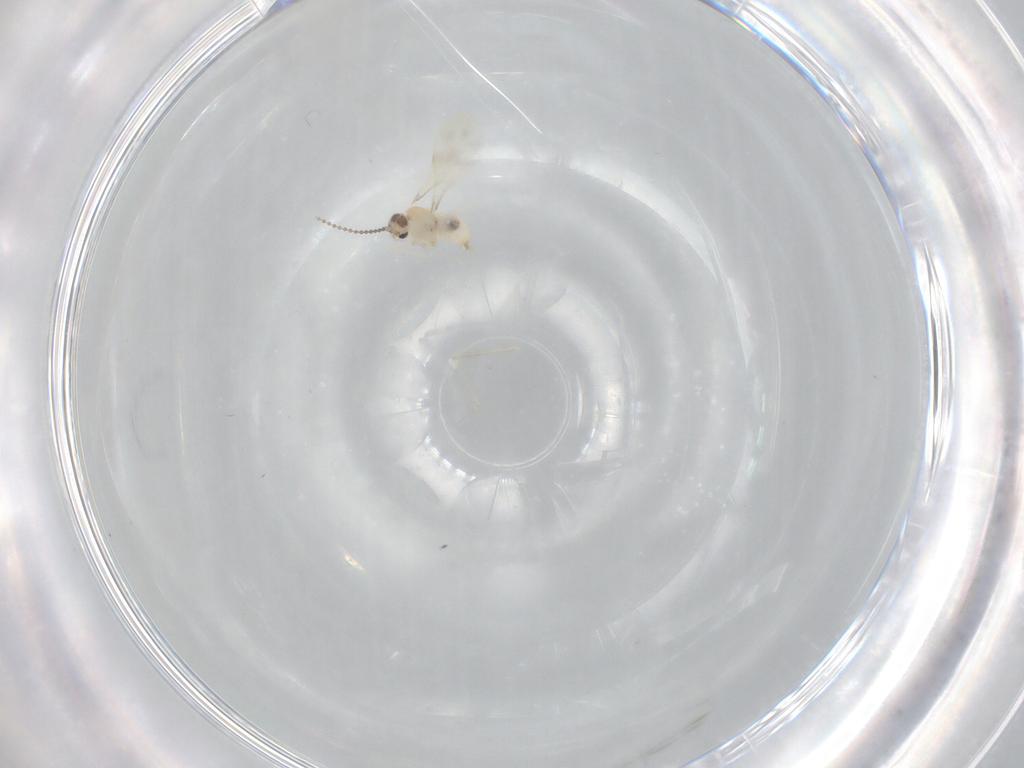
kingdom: Animalia
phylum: Arthropoda
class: Insecta
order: Diptera
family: Cecidomyiidae
